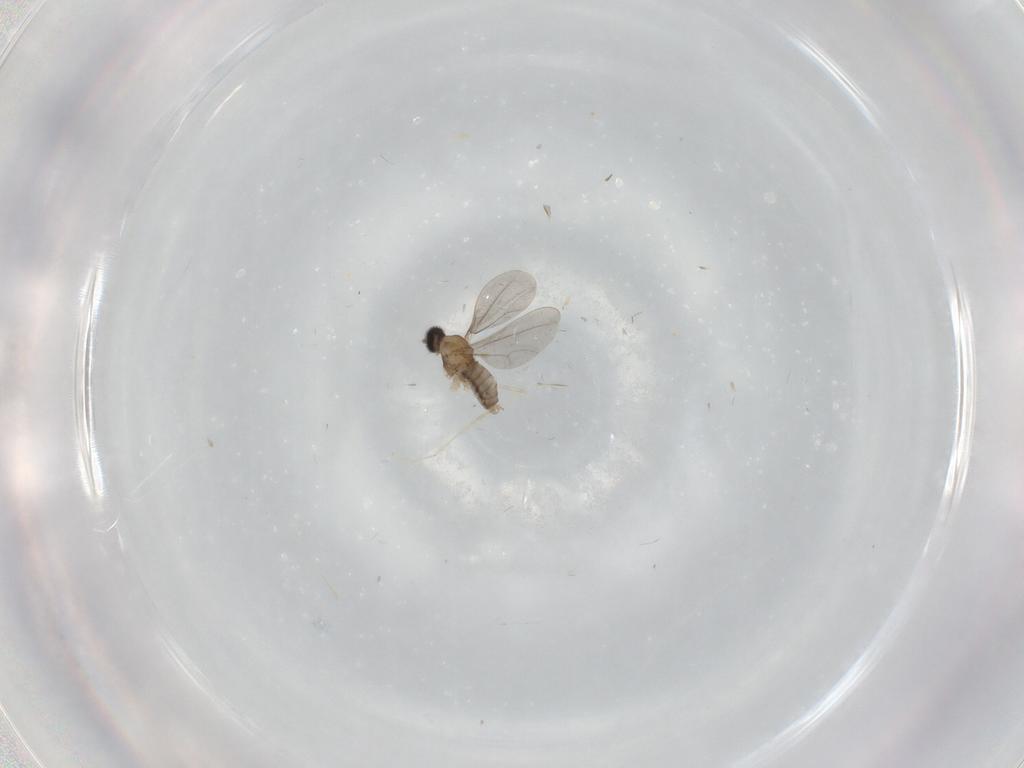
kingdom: Animalia
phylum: Arthropoda
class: Insecta
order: Diptera
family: Cecidomyiidae
